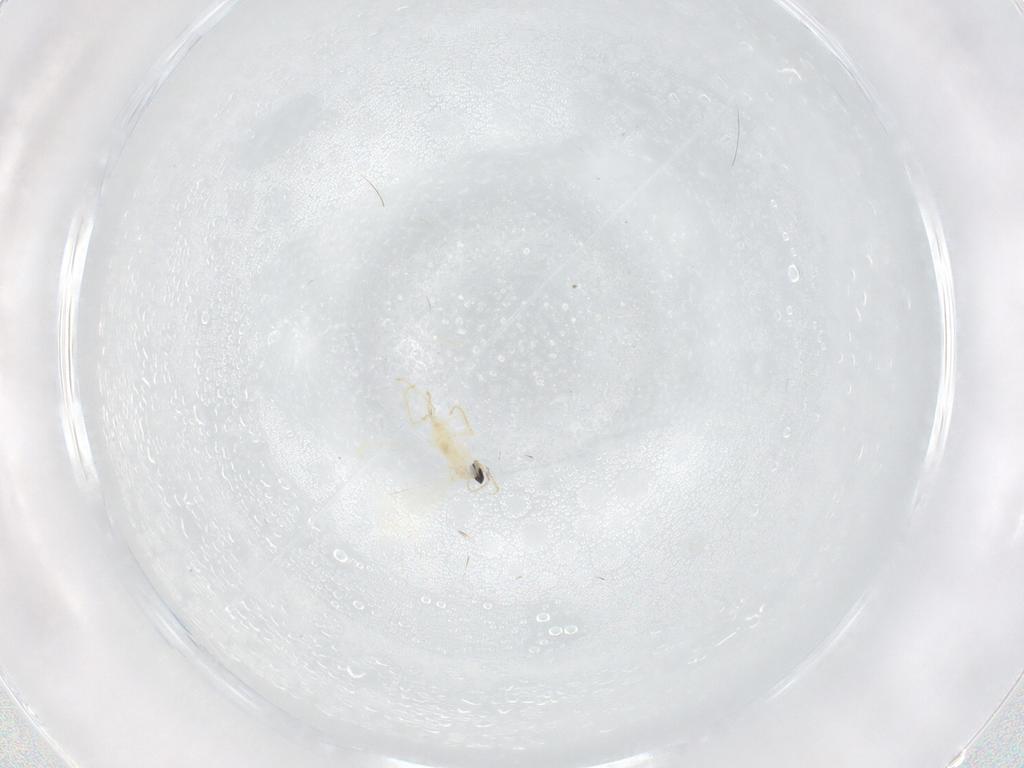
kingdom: Animalia
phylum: Arthropoda
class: Insecta
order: Diptera
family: Cecidomyiidae
